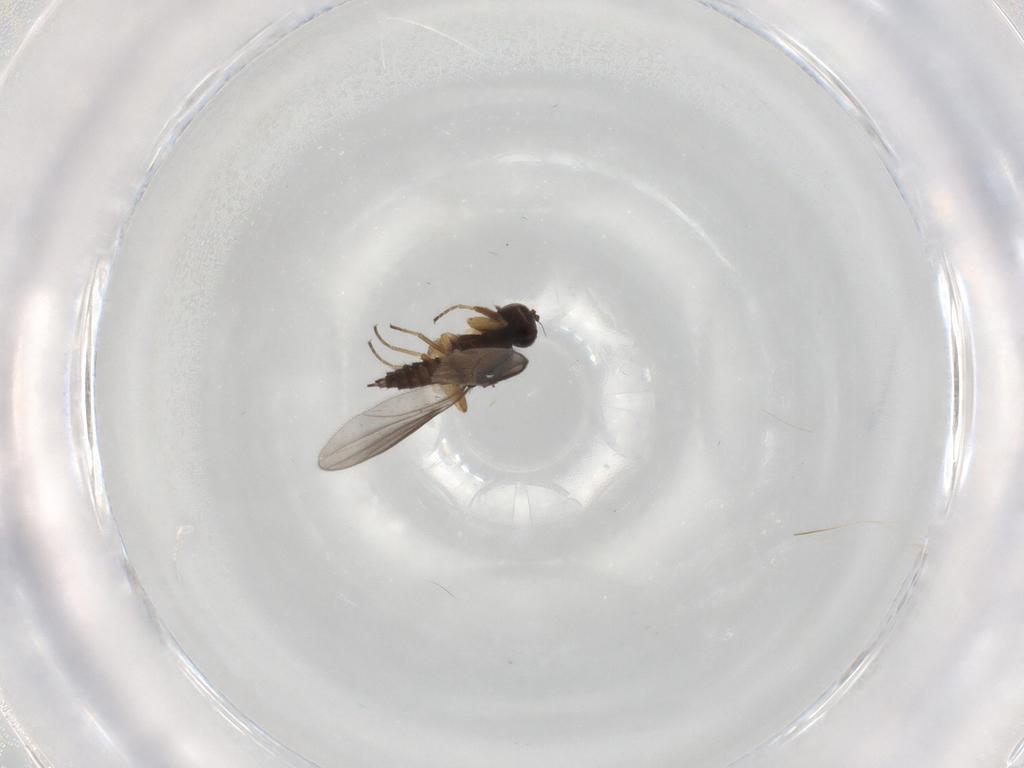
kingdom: Animalia
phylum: Arthropoda
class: Insecta
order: Diptera
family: Hybotidae
